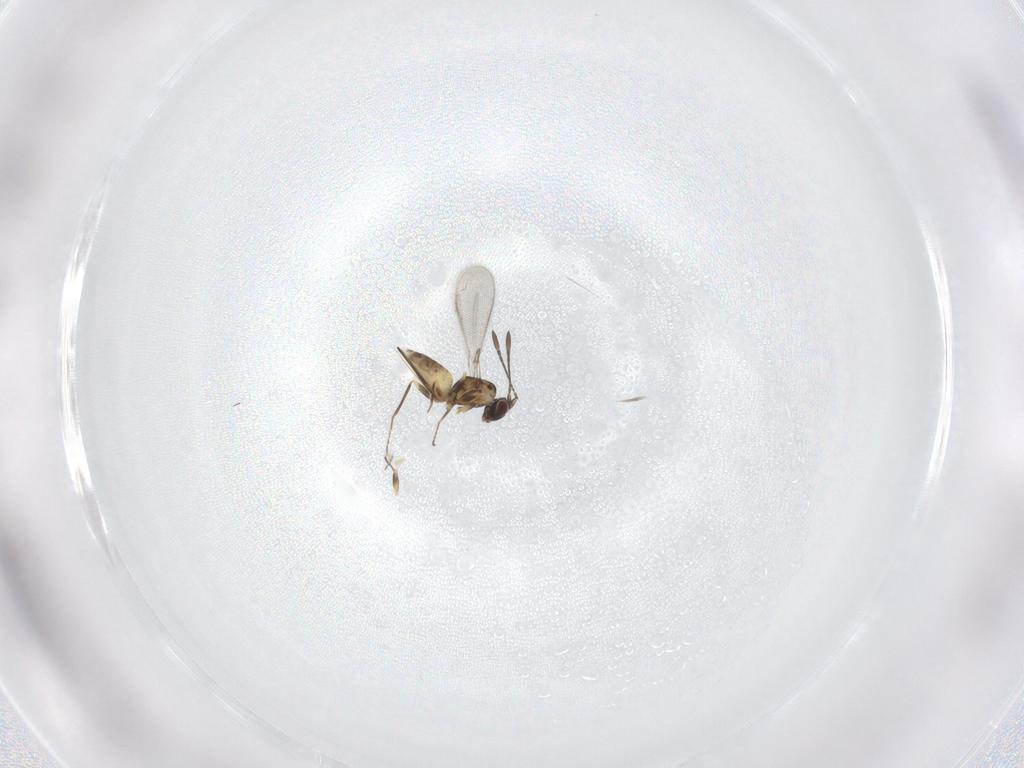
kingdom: Animalia
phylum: Arthropoda
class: Insecta
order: Hymenoptera
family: Mymaridae
